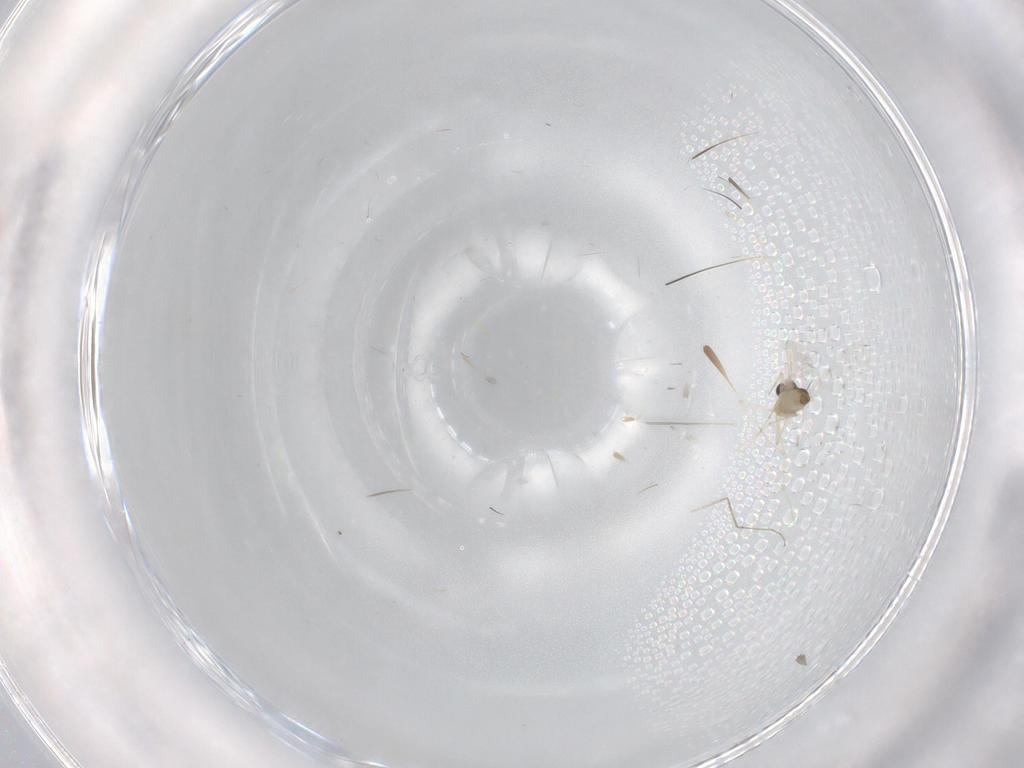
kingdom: Animalia
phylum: Arthropoda
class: Insecta
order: Diptera
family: Chironomidae
